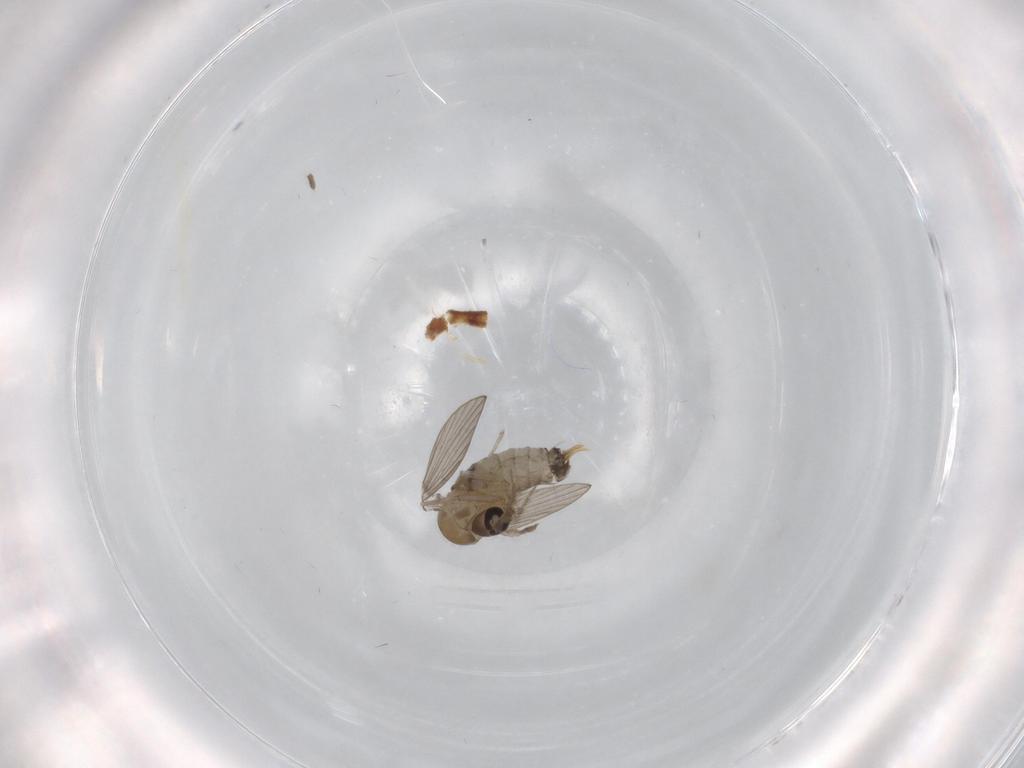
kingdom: Animalia
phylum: Arthropoda
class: Insecta
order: Diptera
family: Psychodidae
